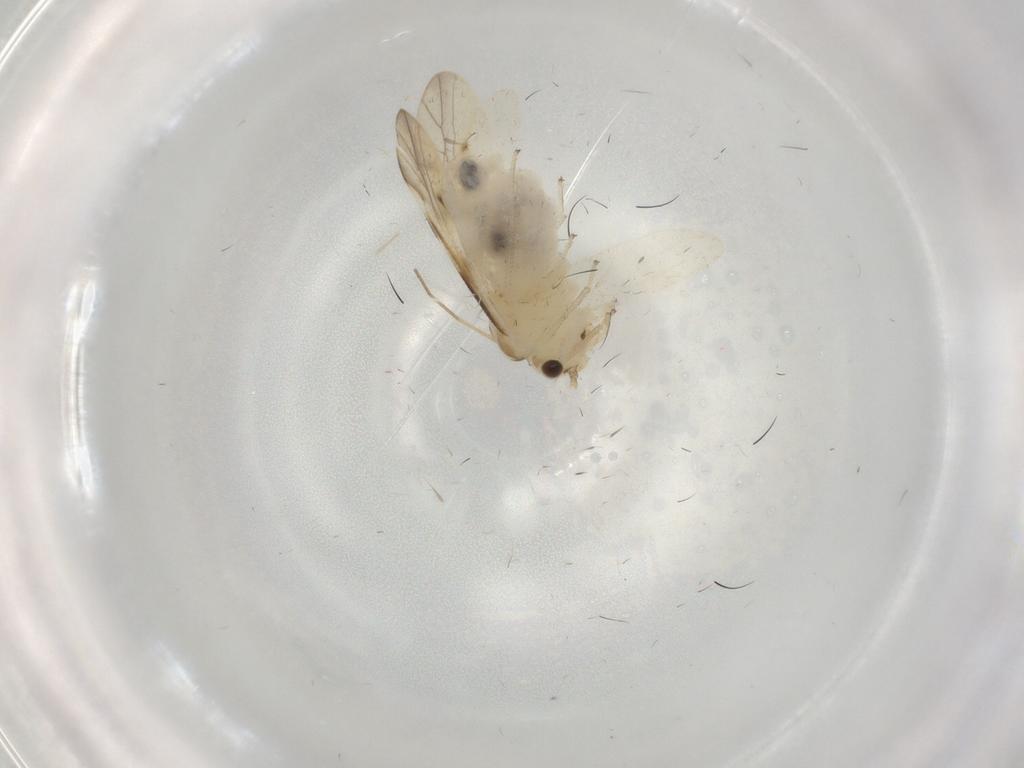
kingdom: Animalia
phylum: Arthropoda
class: Insecta
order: Psocodea
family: Caeciliusidae
